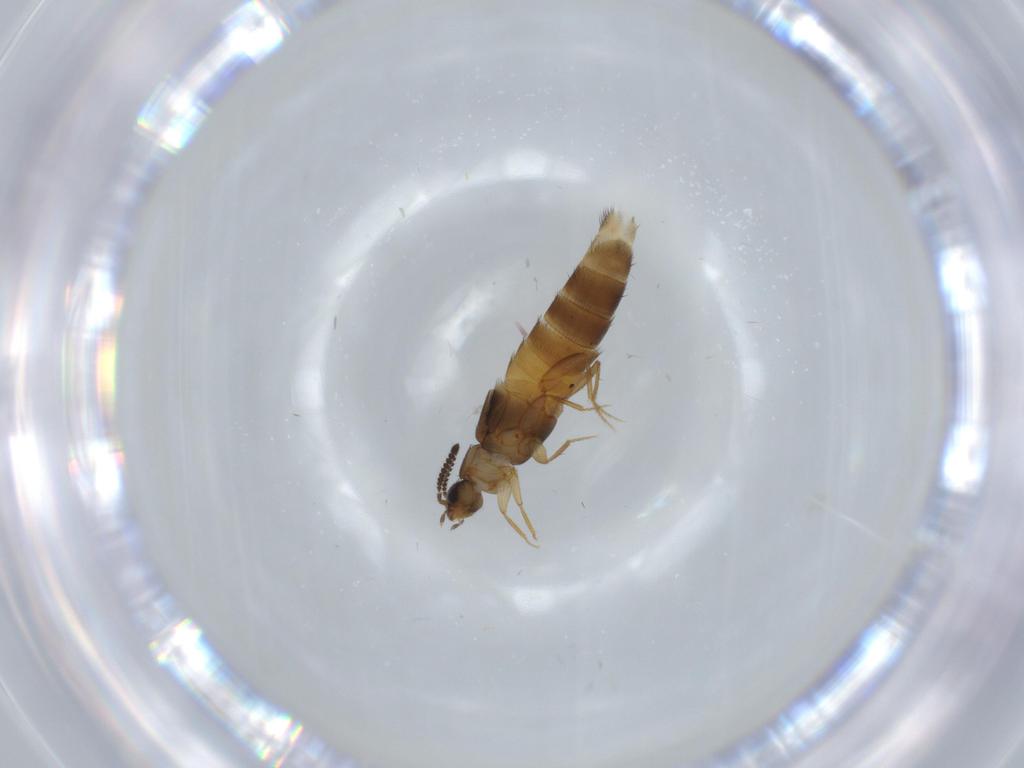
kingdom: Animalia
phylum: Arthropoda
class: Insecta
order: Coleoptera
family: Staphylinidae
